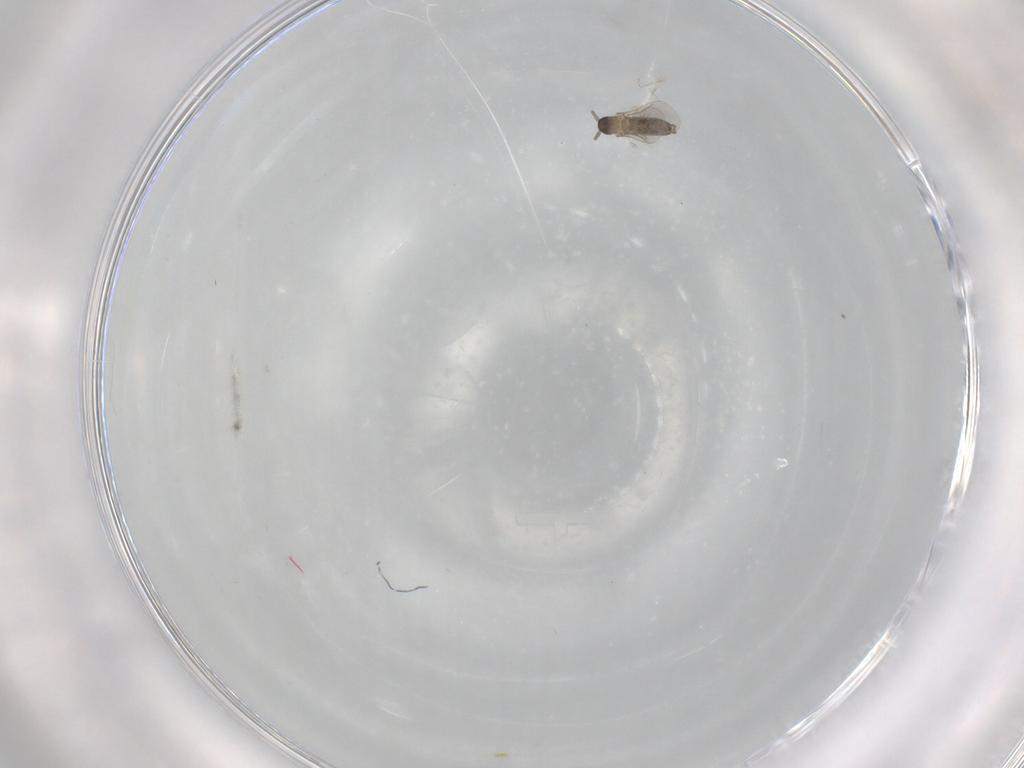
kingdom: Animalia
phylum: Arthropoda
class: Insecta
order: Diptera
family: Cecidomyiidae
